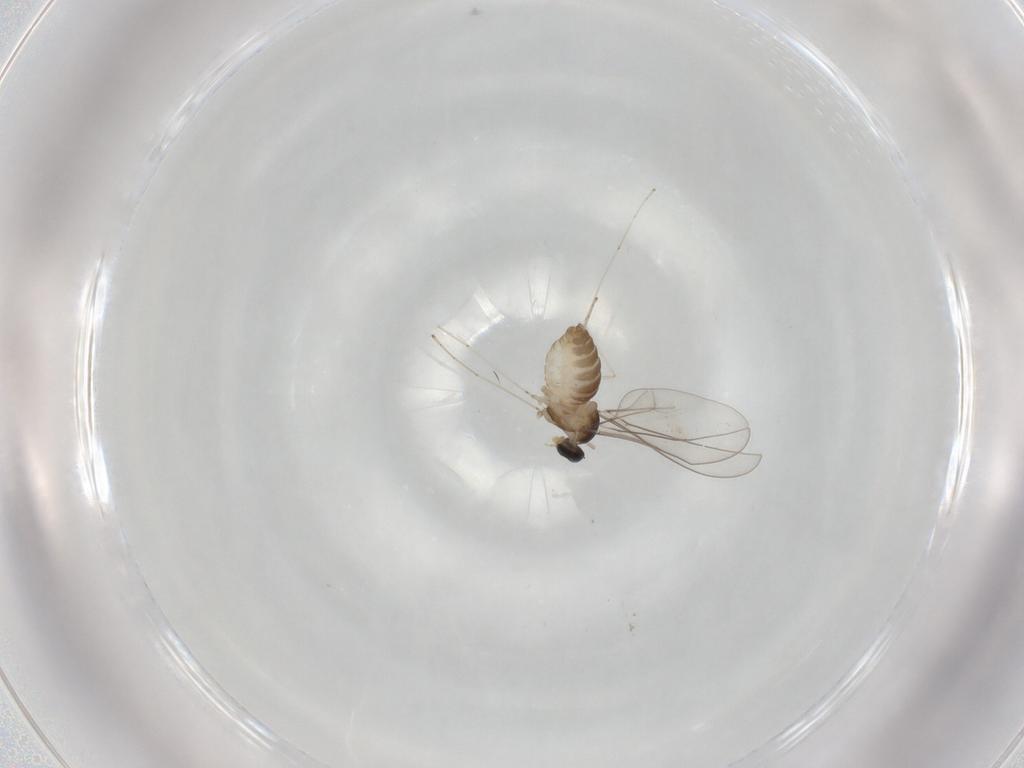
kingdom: Animalia
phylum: Arthropoda
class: Insecta
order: Diptera
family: Cecidomyiidae
